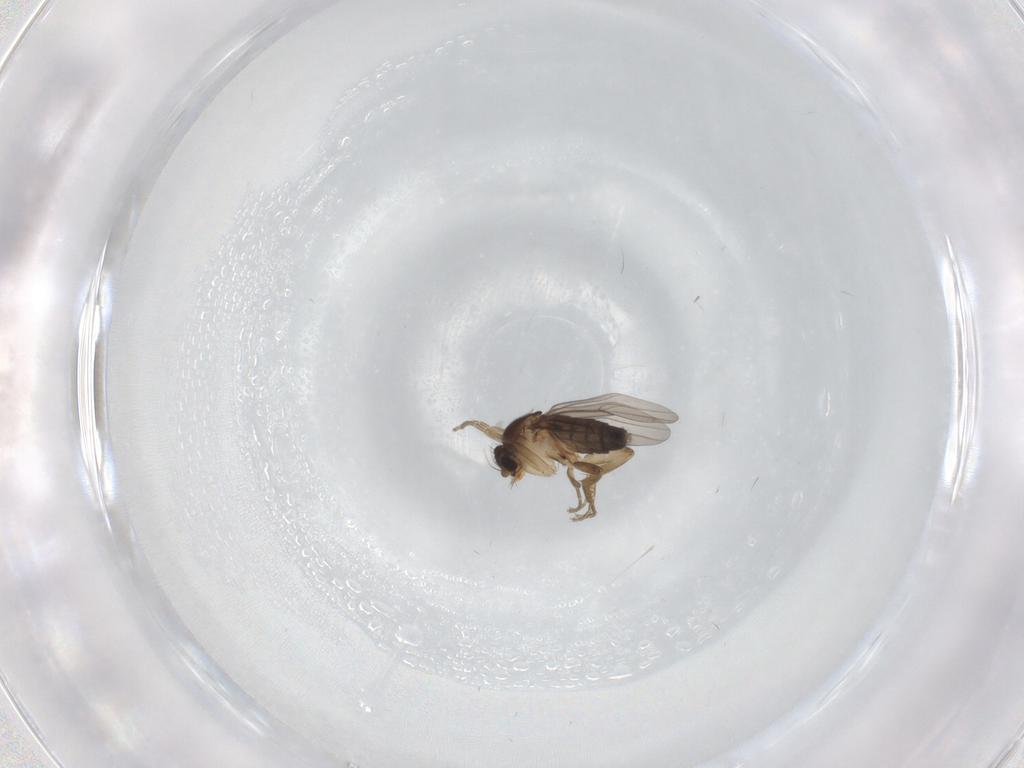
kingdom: Animalia
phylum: Arthropoda
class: Insecta
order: Diptera
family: Phoridae
